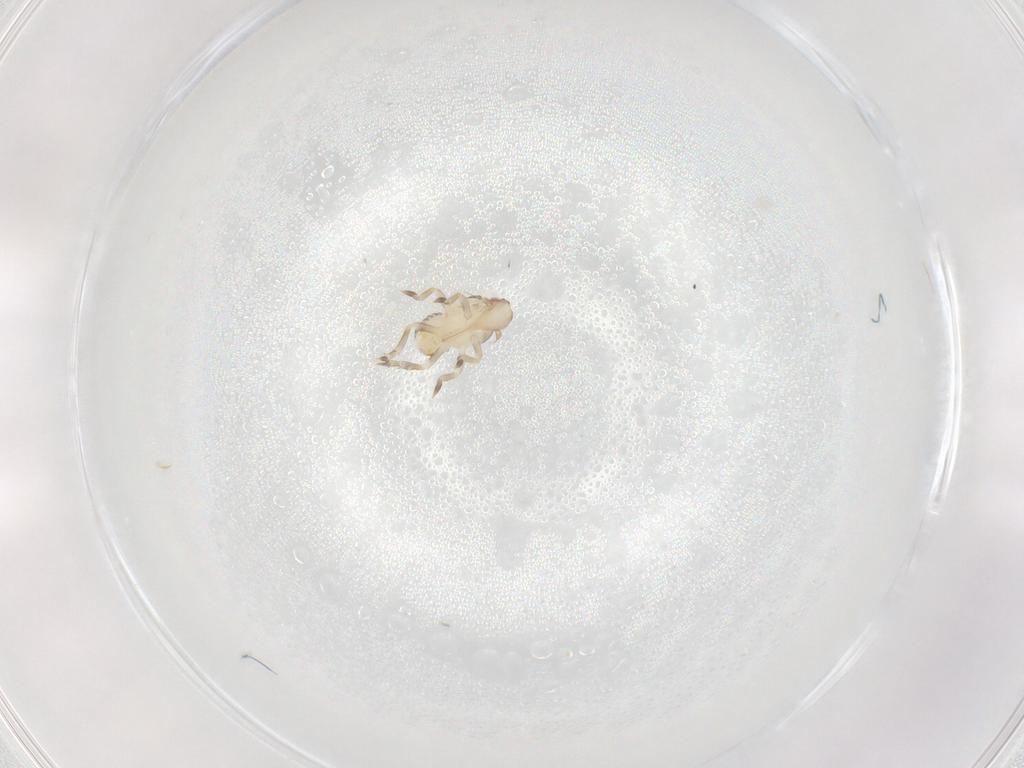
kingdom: Animalia
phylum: Arthropoda
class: Insecta
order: Hemiptera
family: Flatidae
